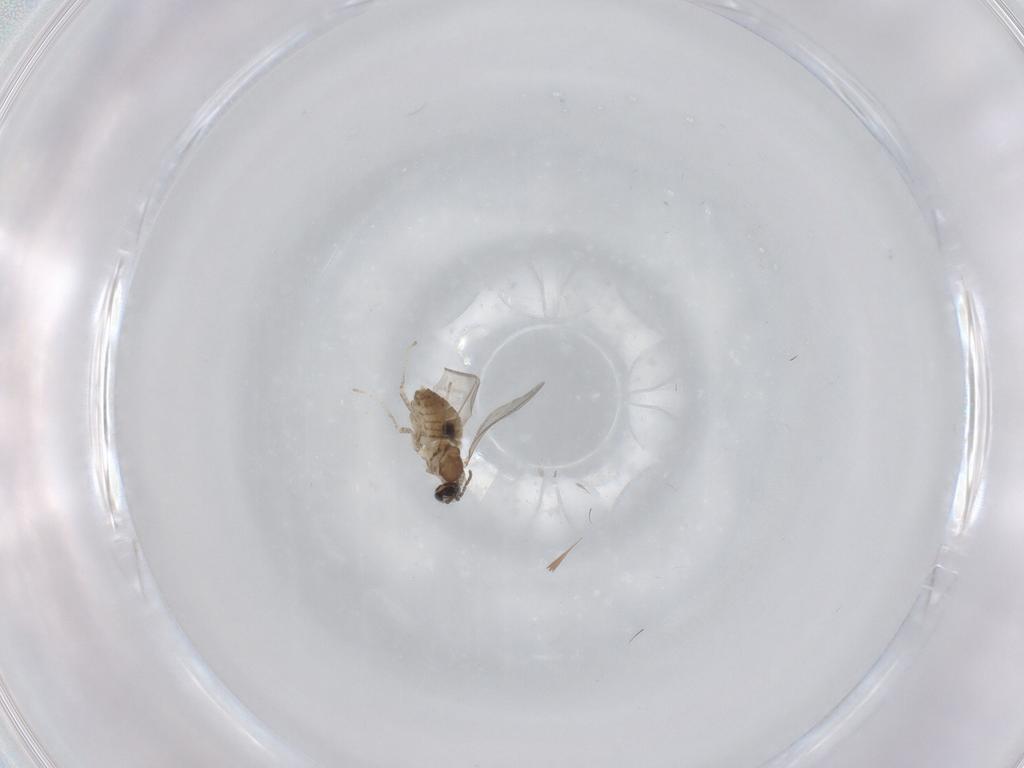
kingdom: Animalia
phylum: Arthropoda
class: Insecta
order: Diptera
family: Cecidomyiidae
